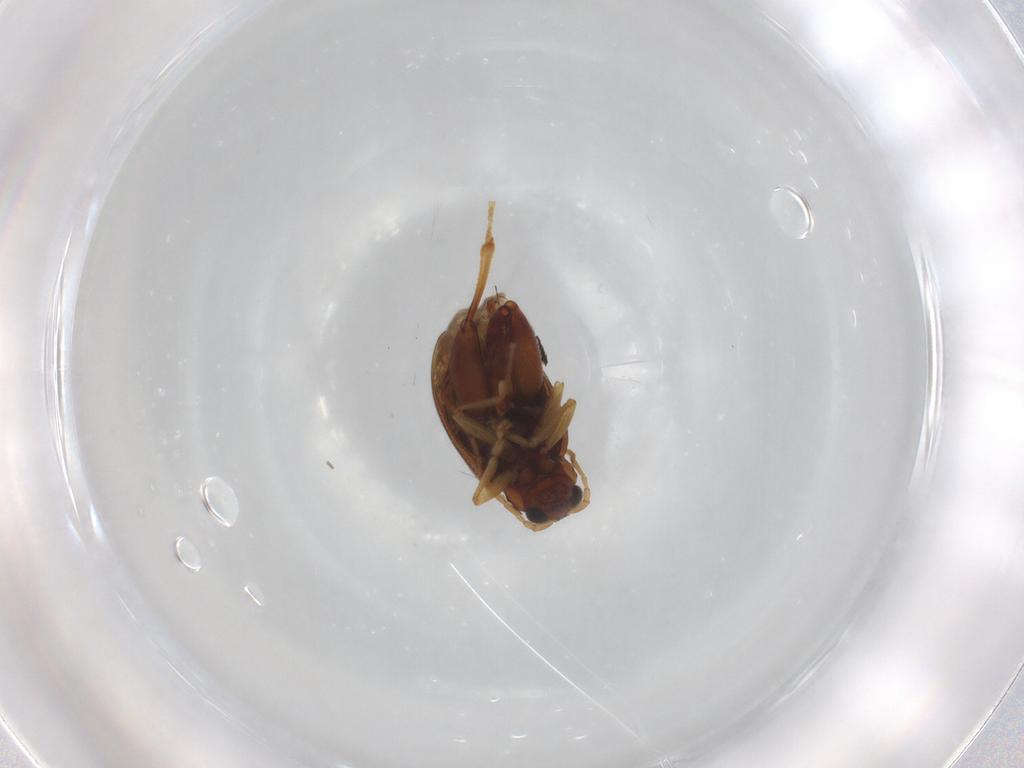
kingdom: Animalia
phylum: Arthropoda
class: Insecta
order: Coleoptera
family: Chrysomelidae
